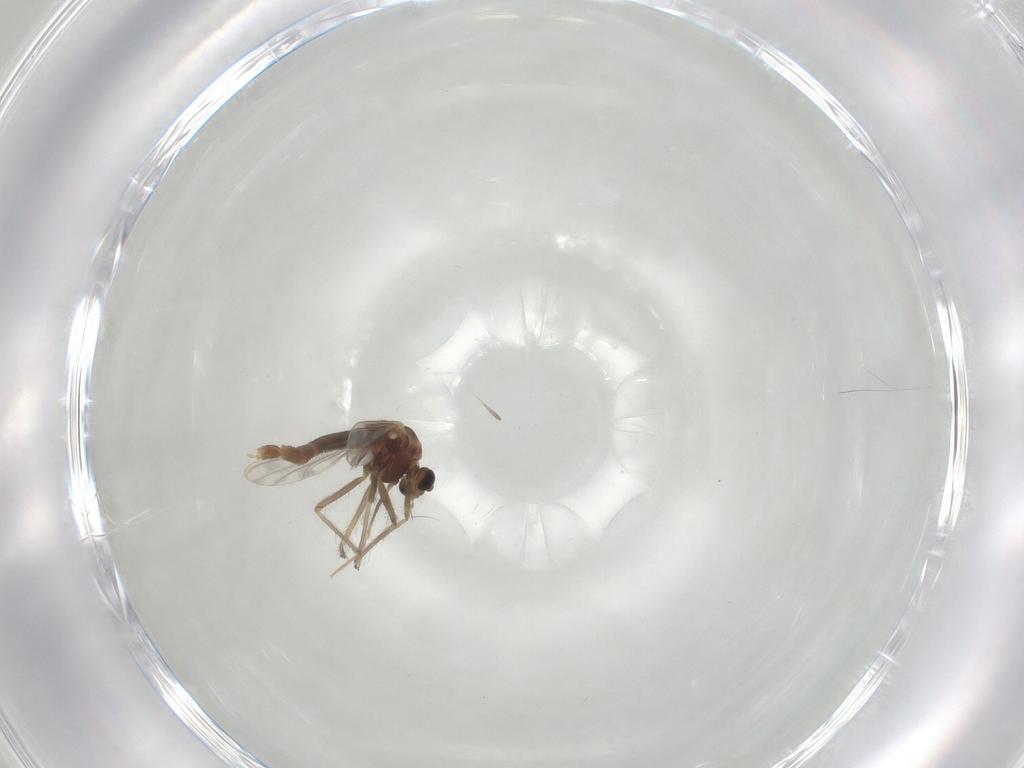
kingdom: Animalia
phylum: Arthropoda
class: Insecta
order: Diptera
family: Chironomidae
